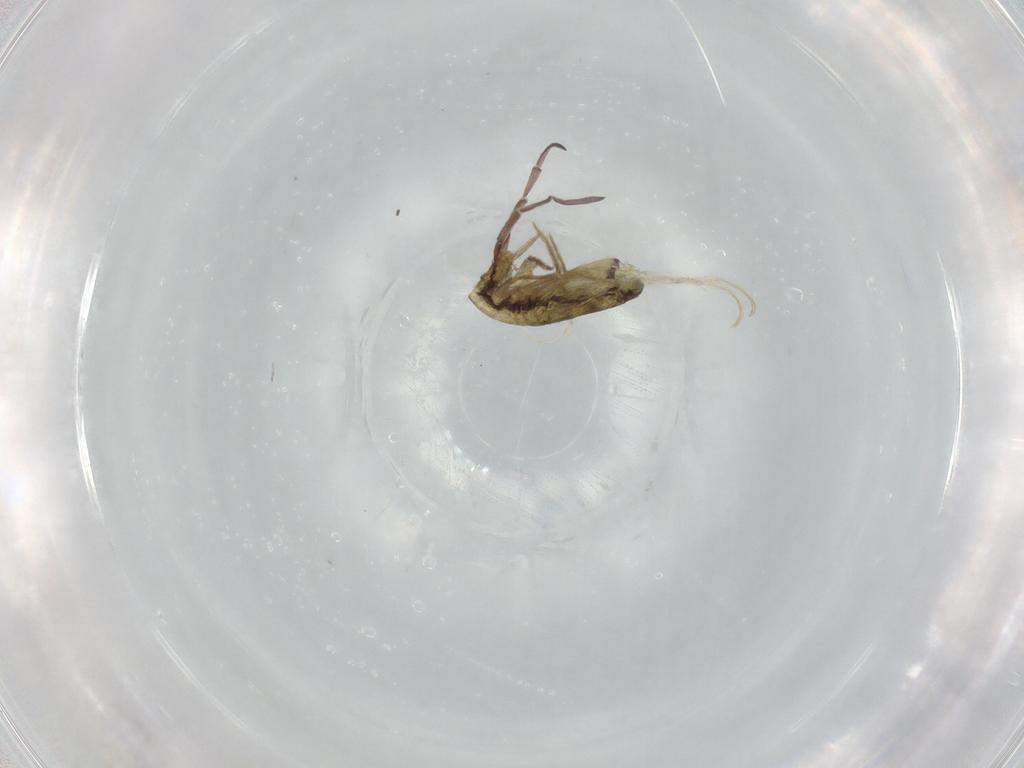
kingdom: Animalia
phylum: Arthropoda
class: Collembola
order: Entomobryomorpha
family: Entomobryidae
